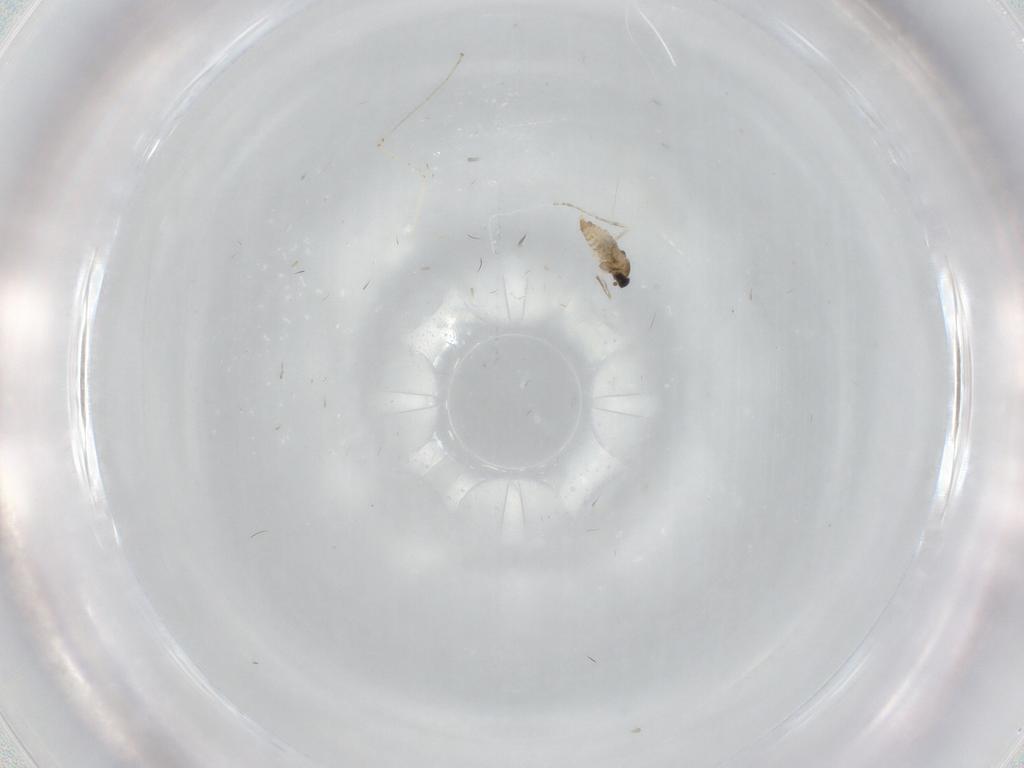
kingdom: Animalia
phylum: Arthropoda
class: Insecta
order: Diptera
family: Cecidomyiidae
